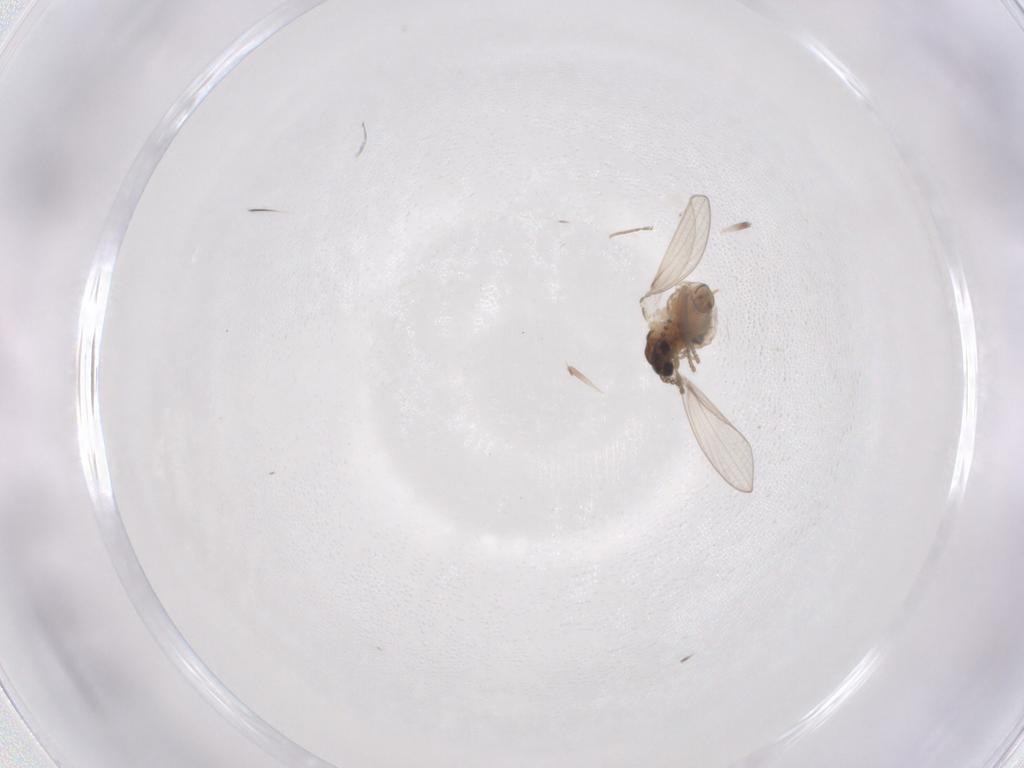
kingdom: Animalia
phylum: Arthropoda
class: Insecta
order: Diptera
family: Psychodidae
